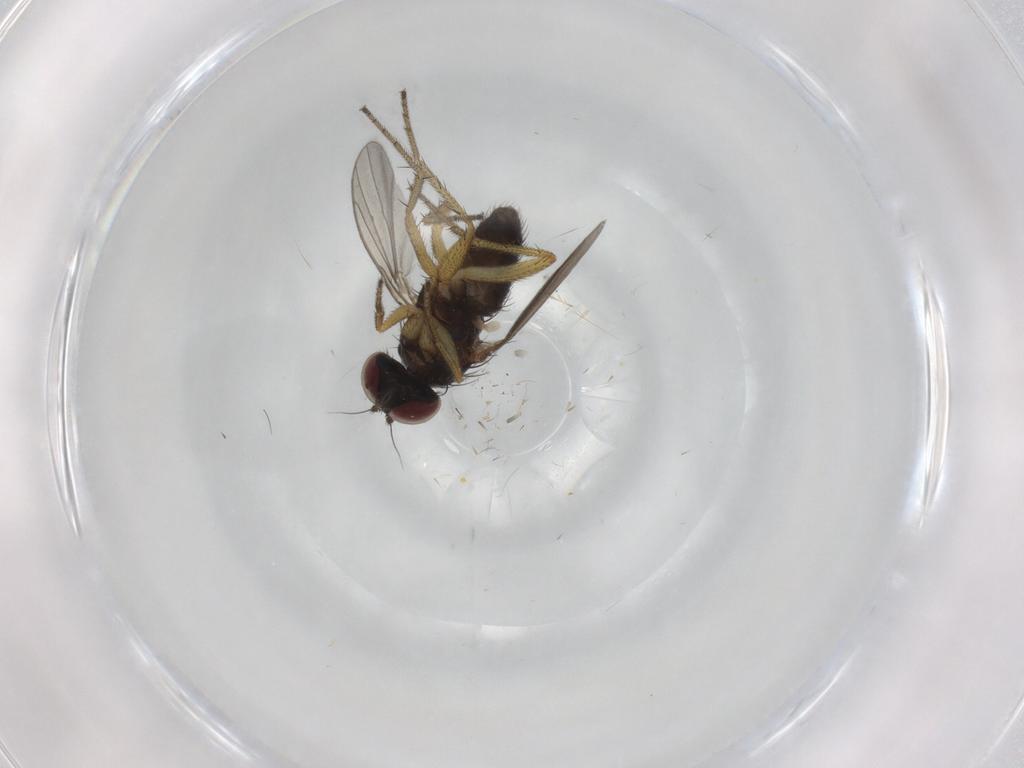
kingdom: Animalia
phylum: Arthropoda
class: Insecta
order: Diptera
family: Dolichopodidae
